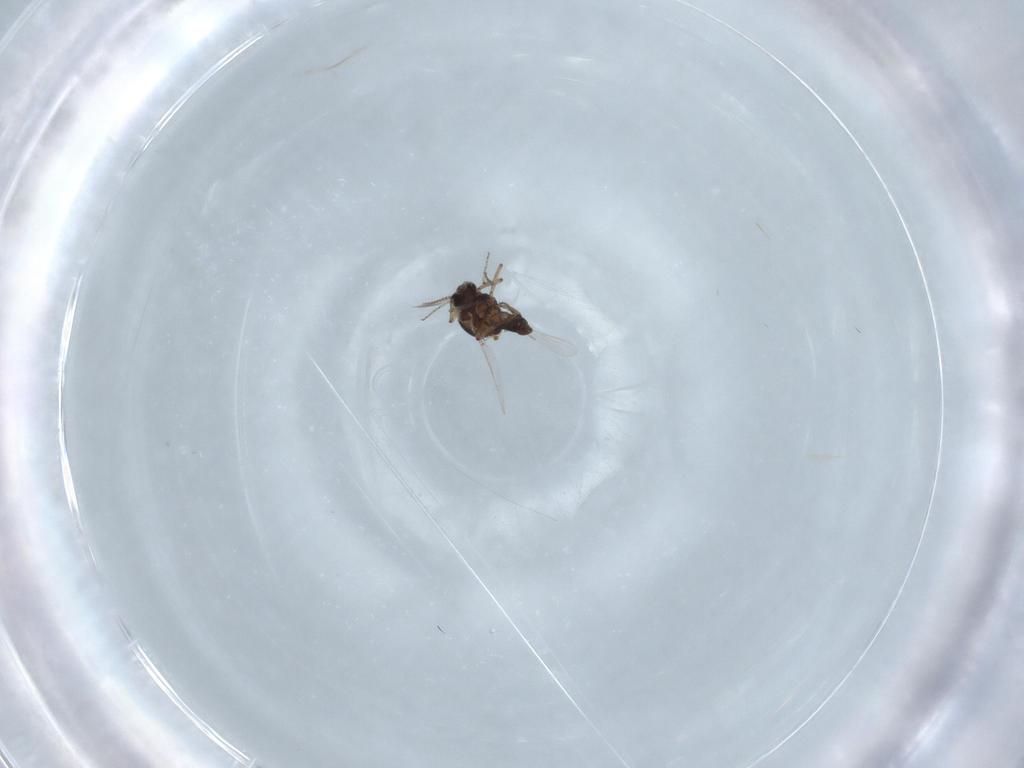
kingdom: Animalia
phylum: Arthropoda
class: Insecta
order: Diptera
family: Ceratopogonidae
